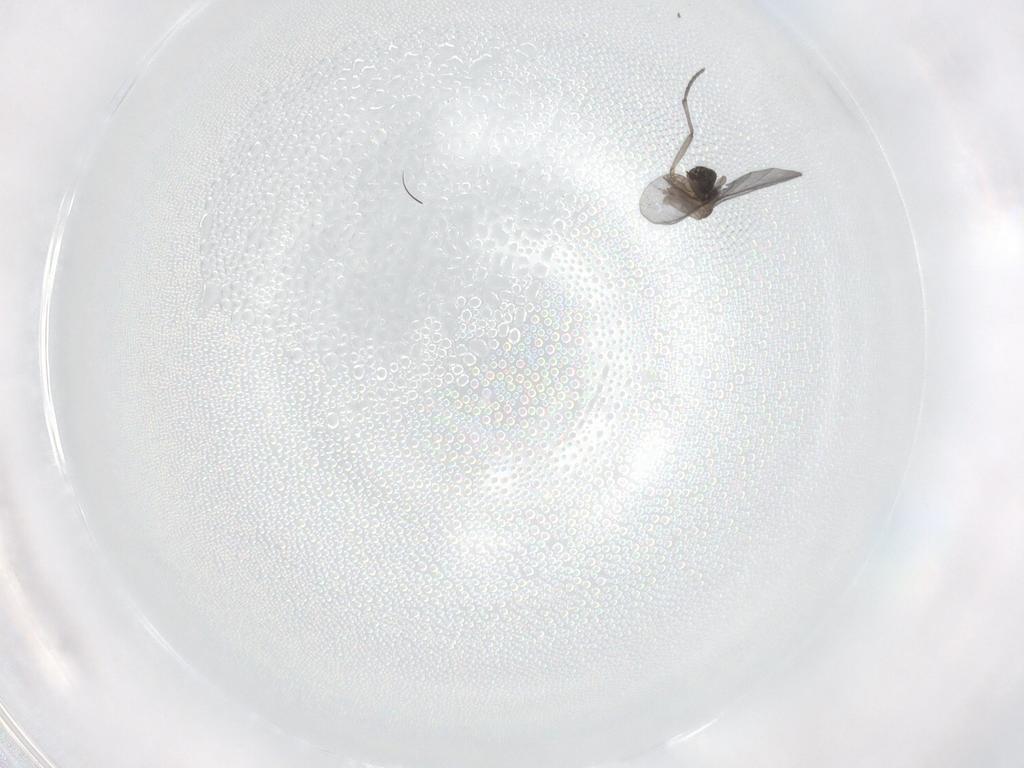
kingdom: Animalia
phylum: Arthropoda
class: Insecta
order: Diptera
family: Sciaridae
